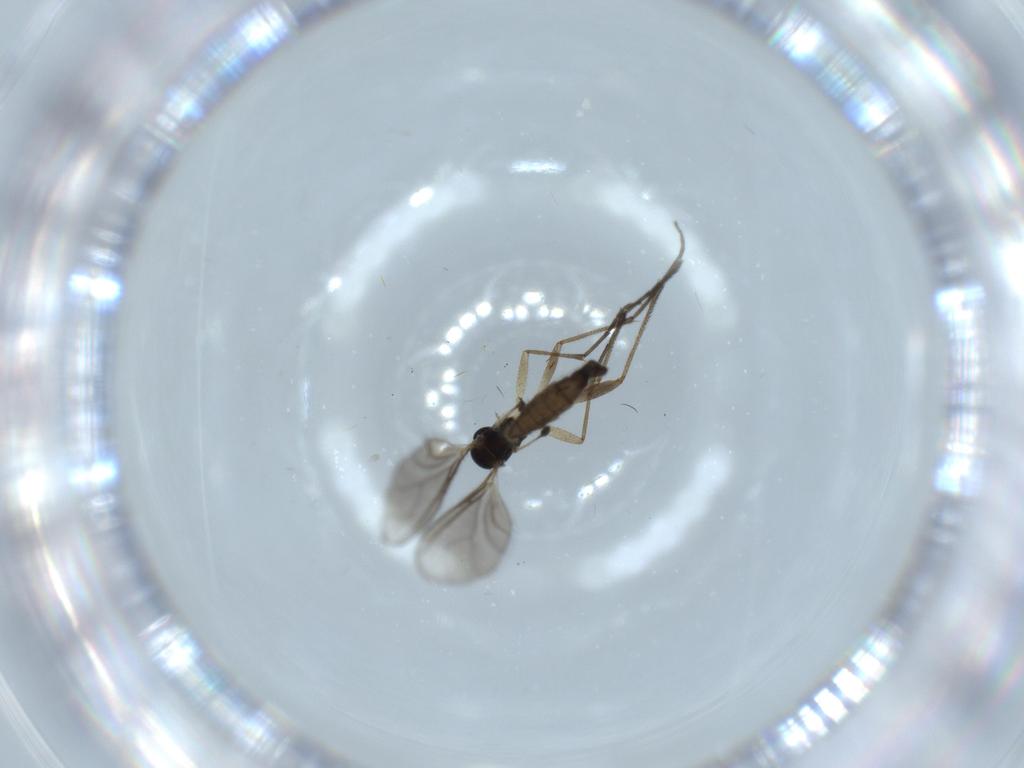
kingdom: Animalia
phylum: Arthropoda
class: Insecta
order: Diptera
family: Sciaridae
